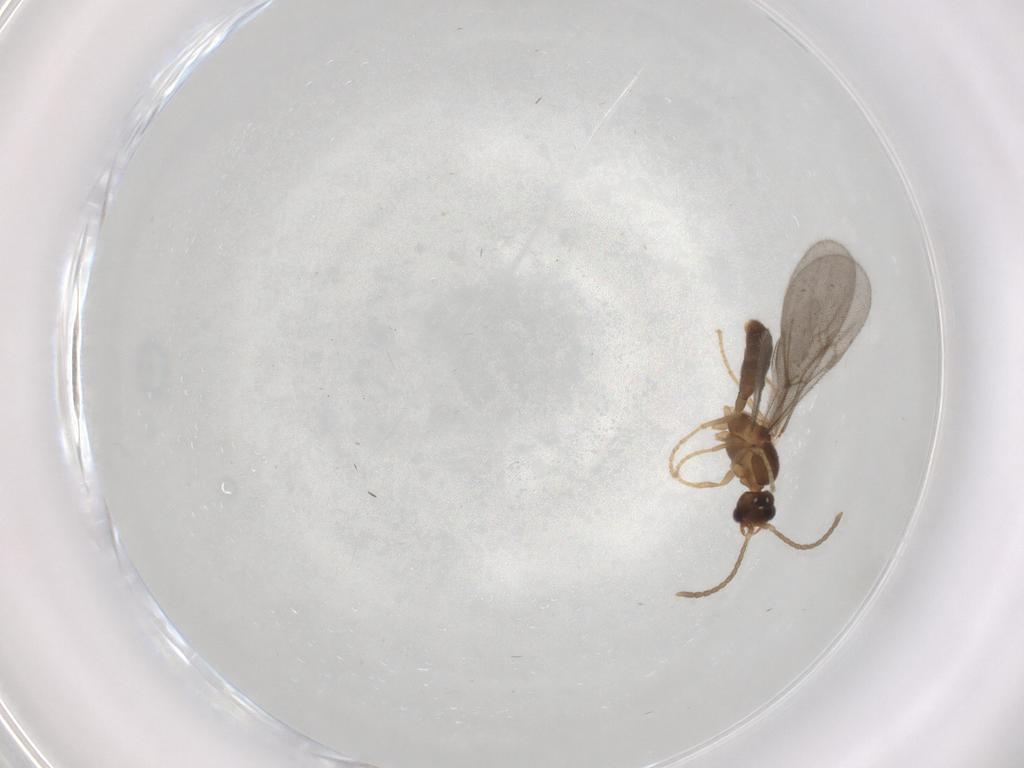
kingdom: Animalia
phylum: Arthropoda
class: Insecta
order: Hymenoptera
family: Formicidae
